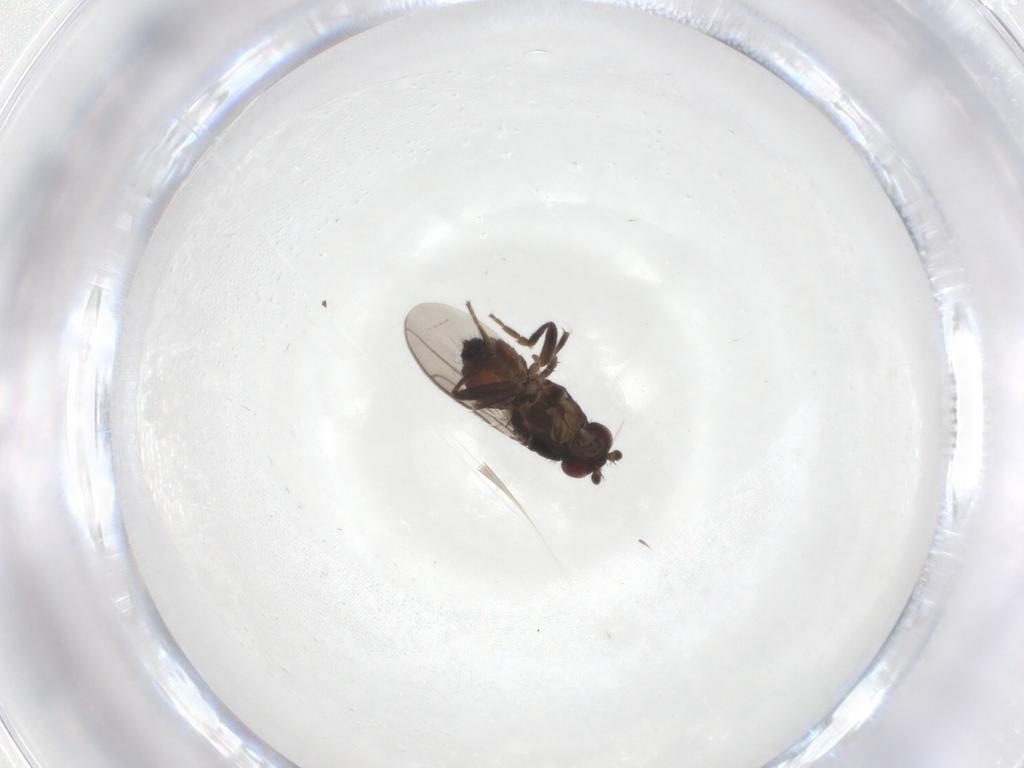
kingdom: Animalia
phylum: Arthropoda
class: Insecta
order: Diptera
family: Sphaeroceridae
